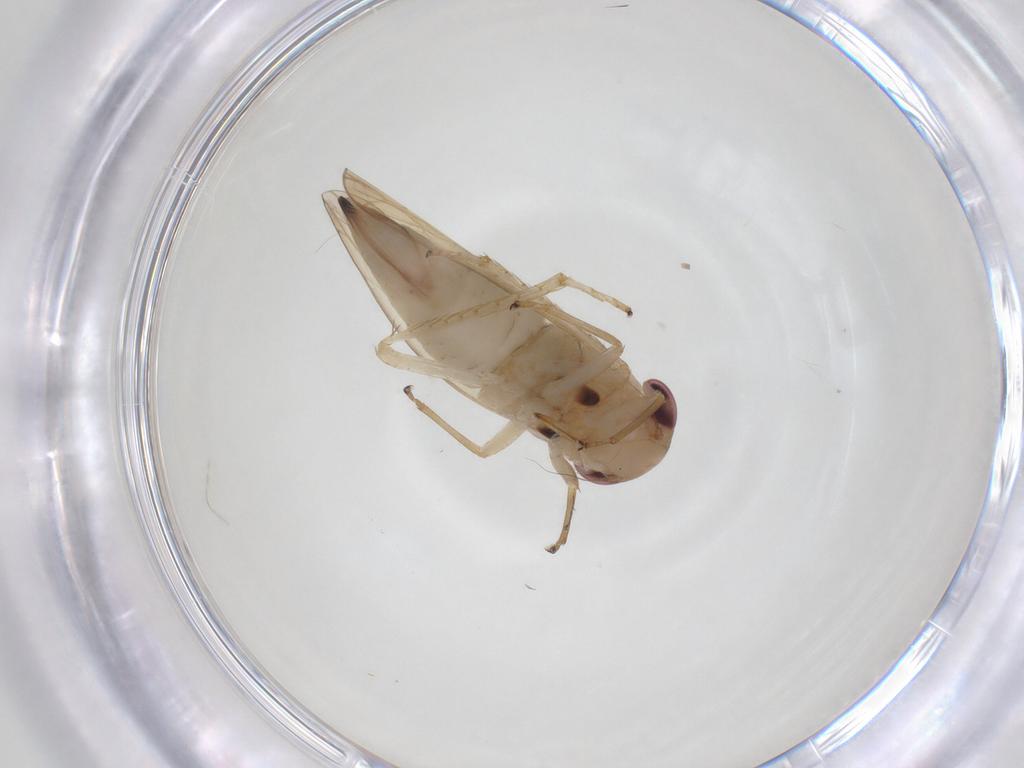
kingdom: Animalia
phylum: Arthropoda
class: Insecta
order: Hemiptera
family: Cicadellidae
